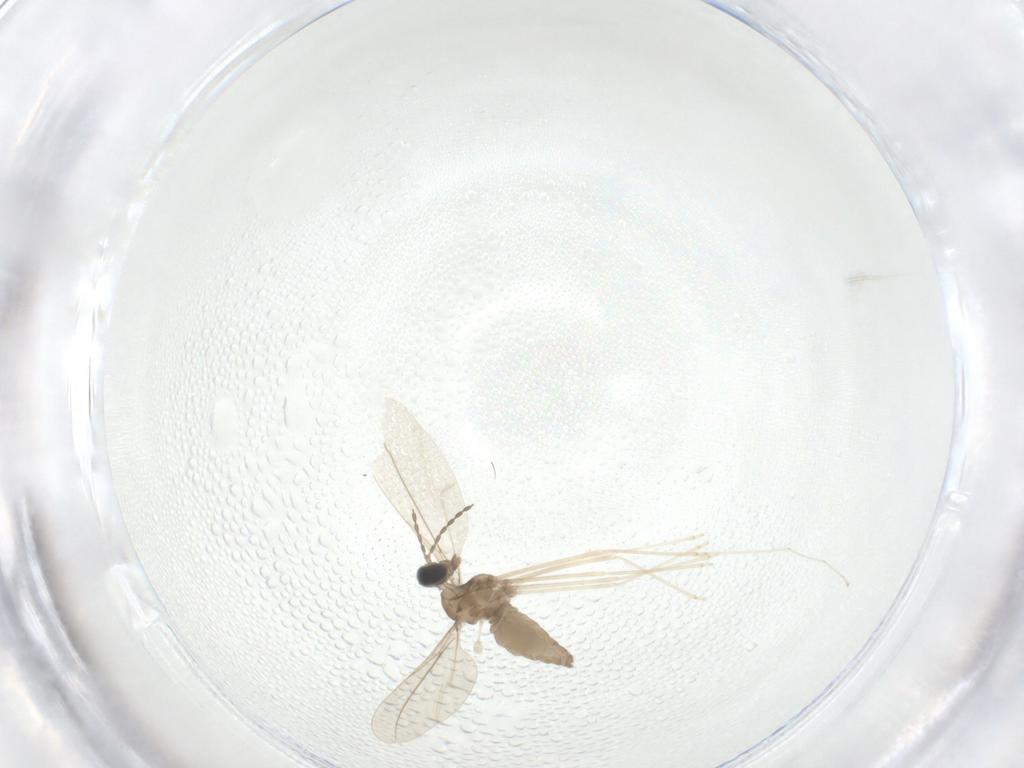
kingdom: Animalia
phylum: Arthropoda
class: Insecta
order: Diptera
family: Cecidomyiidae
